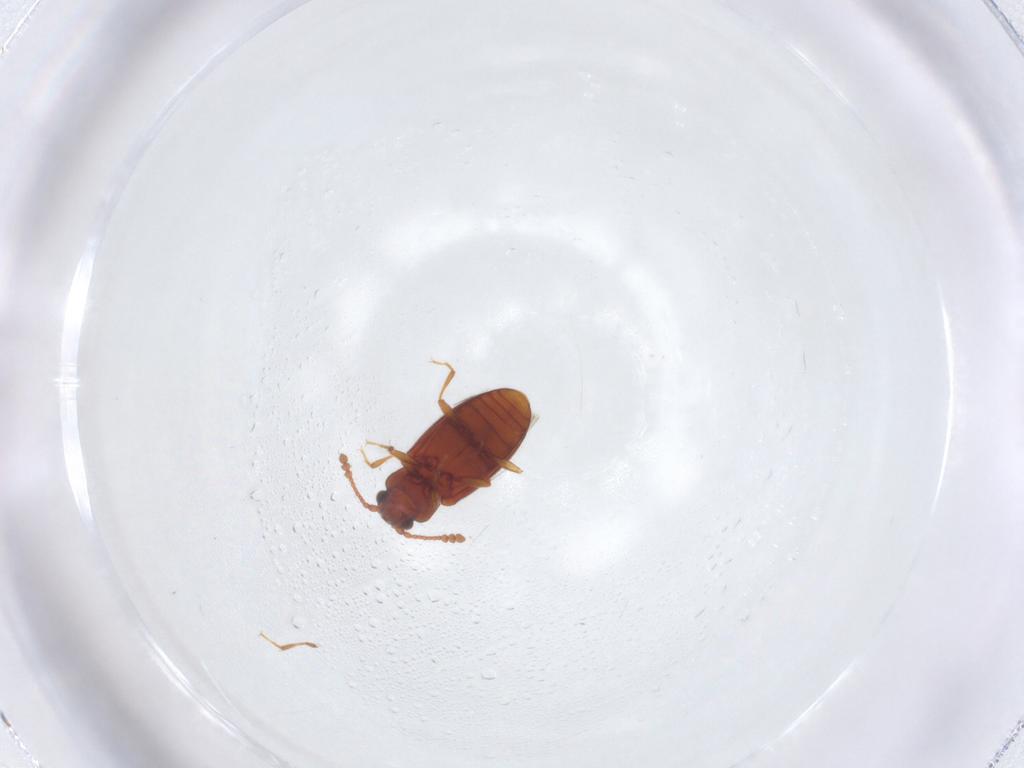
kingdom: Animalia
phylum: Arthropoda
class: Insecta
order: Coleoptera
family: Cryptophagidae
